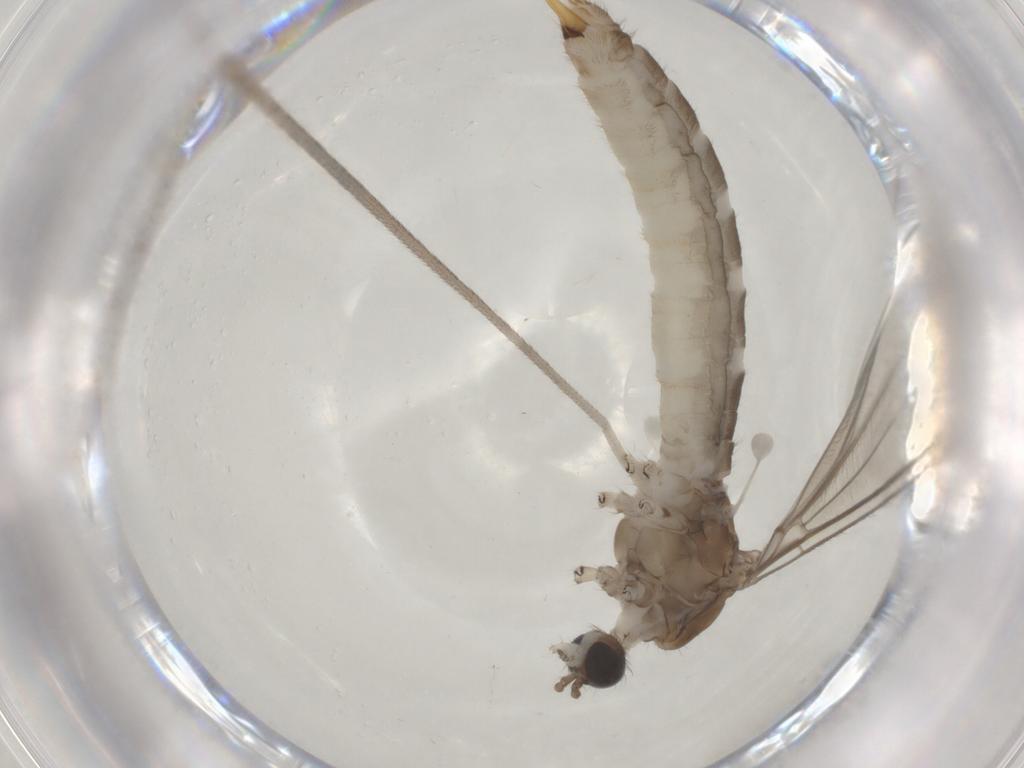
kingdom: Animalia
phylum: Arthropoda
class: Insecta
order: Diptera
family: Limoniidae
